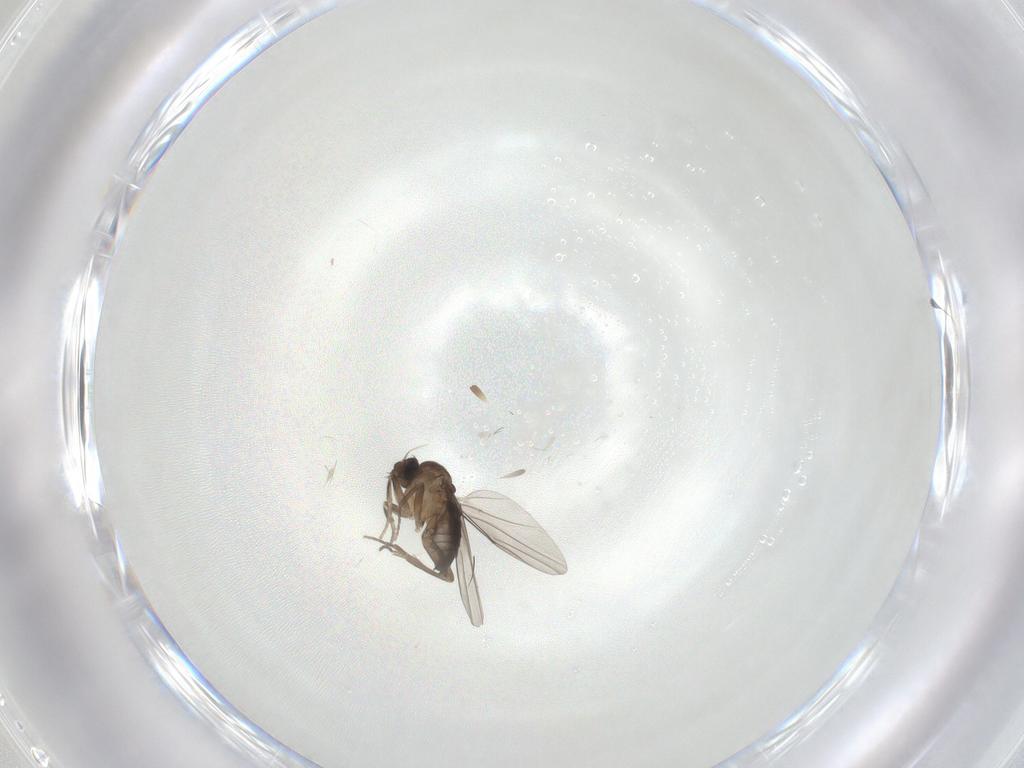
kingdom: Animalia
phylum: Arthropoda
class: Insecta
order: Diptera
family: Cecidomyiidae
